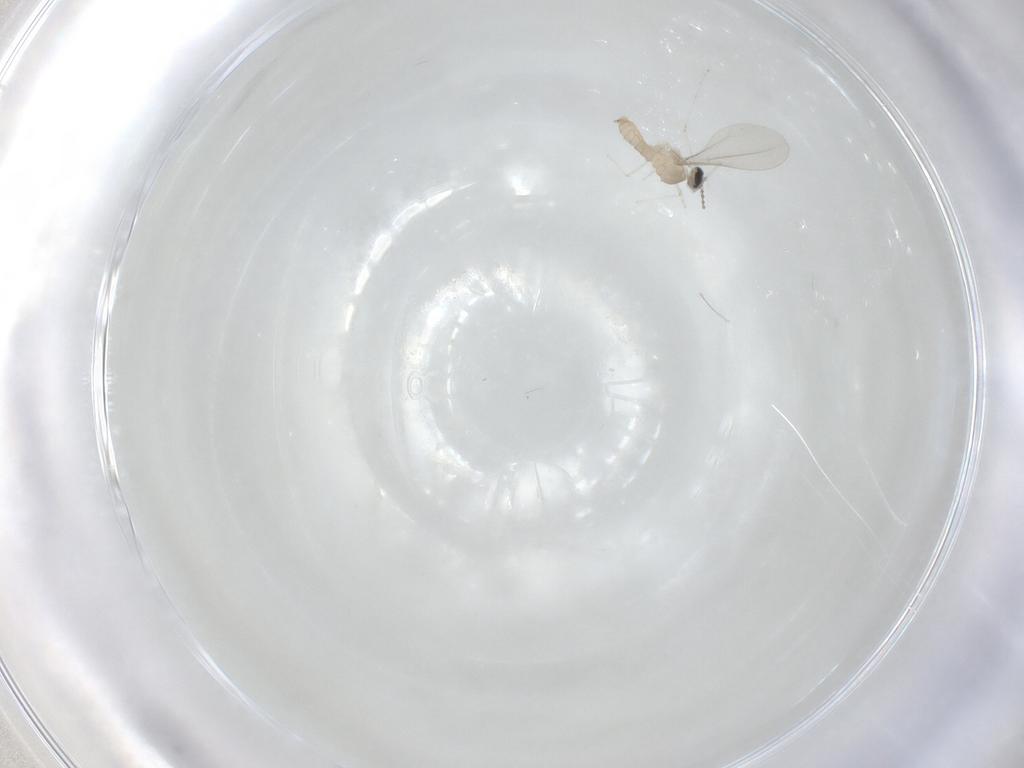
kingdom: Animalia
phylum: Arthropoda
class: Insecta
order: Diptera
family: Cecidomyiidae
